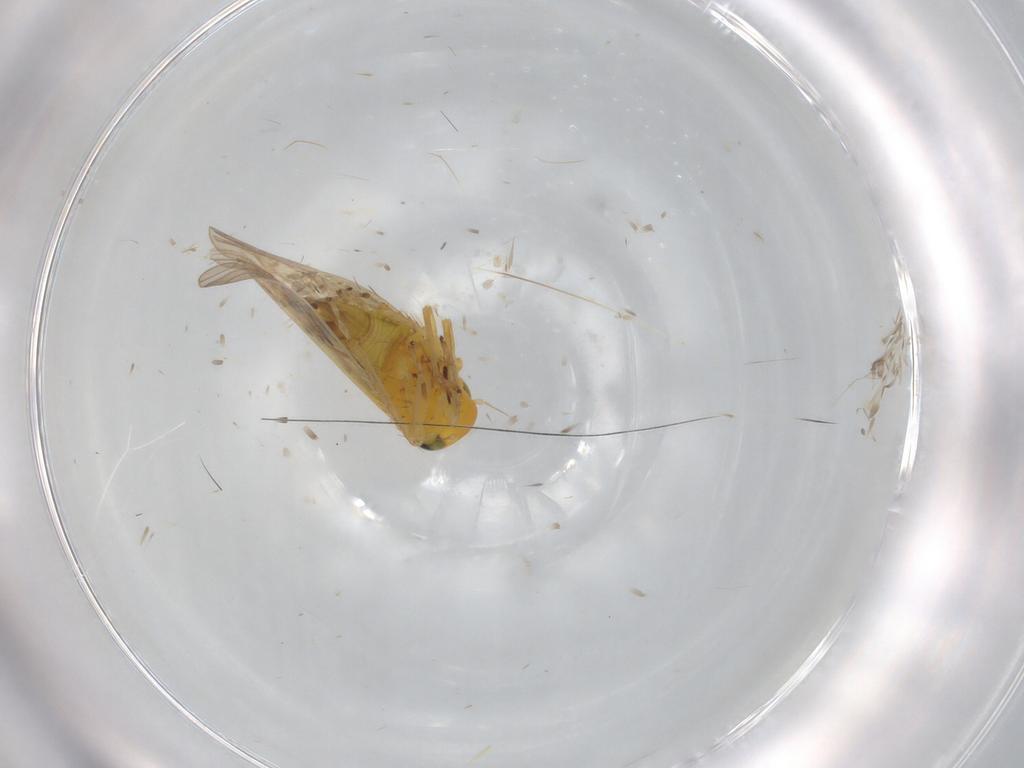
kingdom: Animalia
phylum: Arthropoda
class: Insecta
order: Hemiptera
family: Cicadellidae
